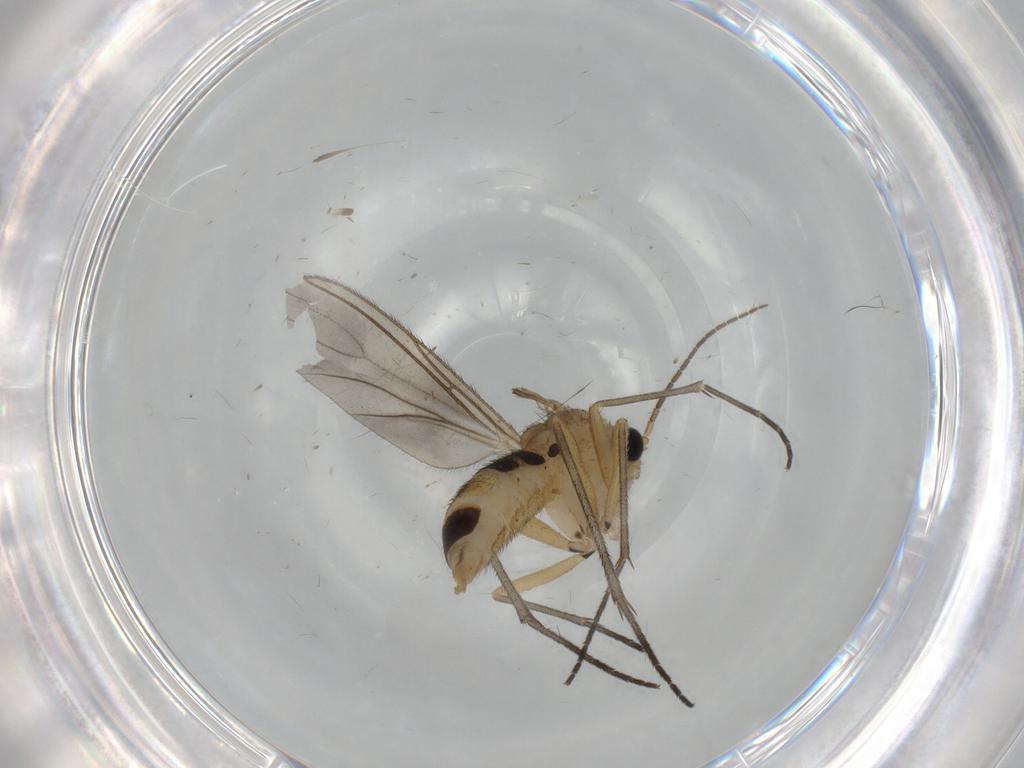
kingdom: Animalia
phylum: Arthropoda
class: Insecta
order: Diptera
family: Sciaridae
